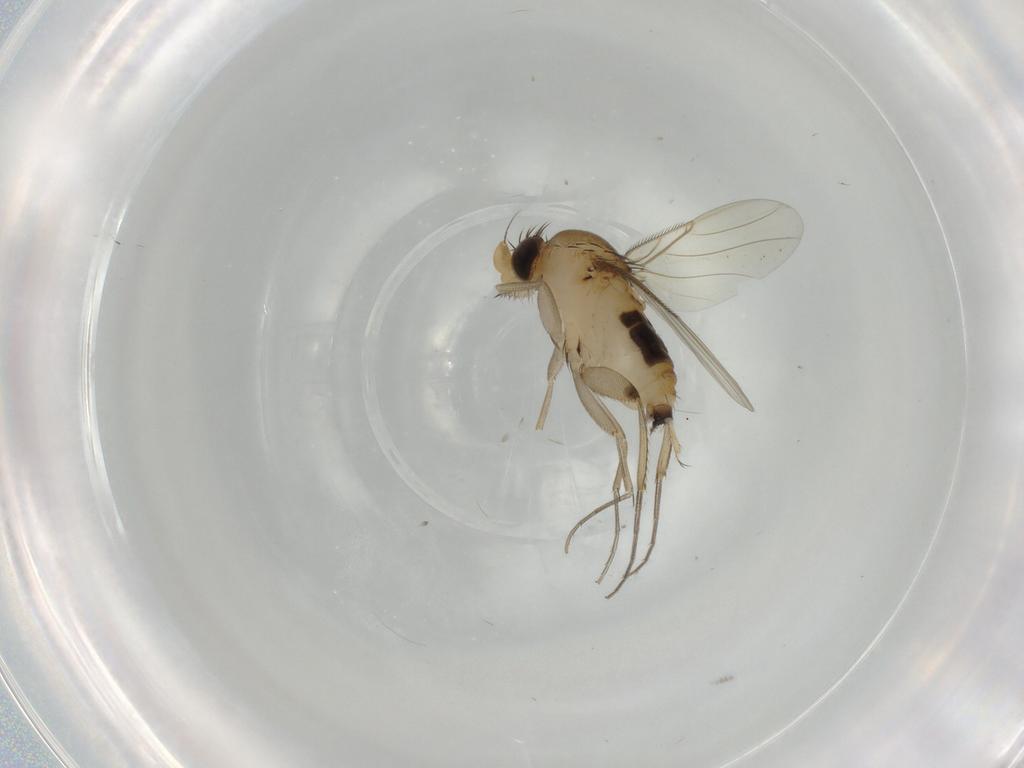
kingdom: Animalia
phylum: Arthropoda
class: Insecta
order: Diptera
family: Phoridae
